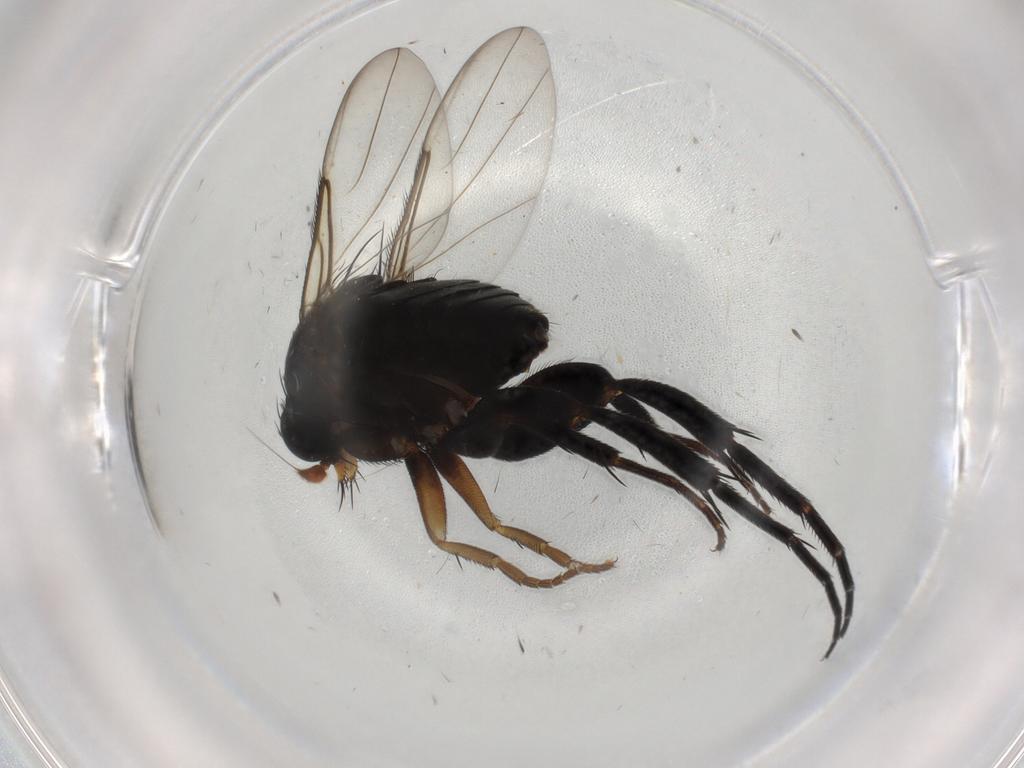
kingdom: Animalia
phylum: Arthropoda
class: Insecta
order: Diptera
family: Phoridae
